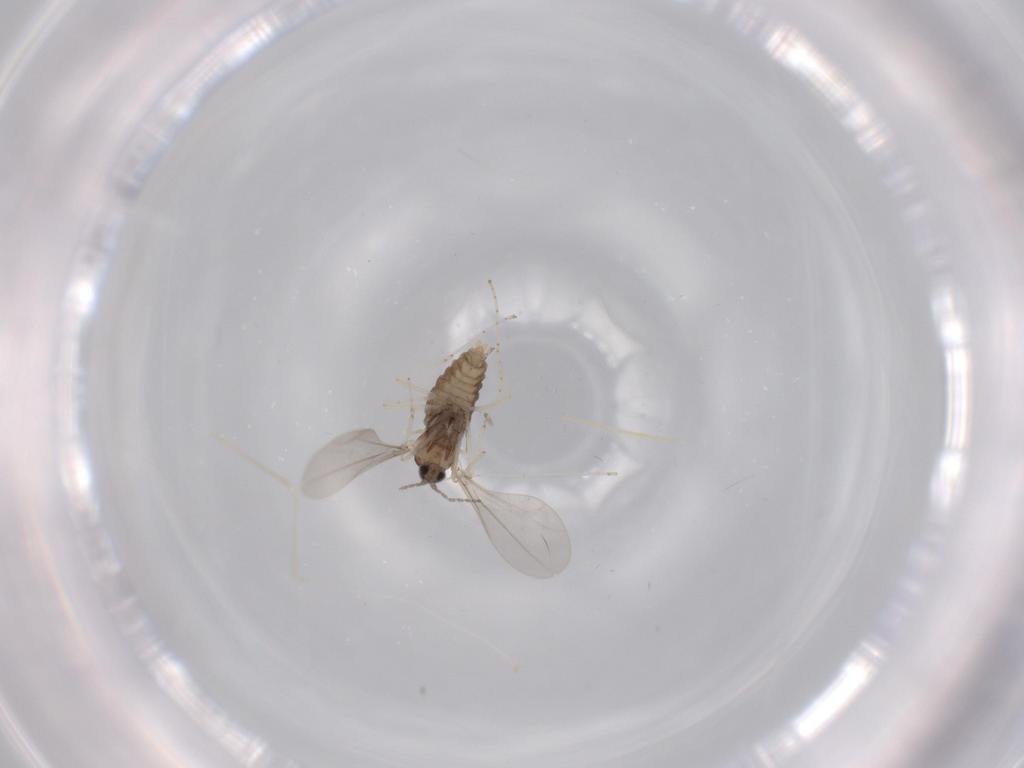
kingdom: Animalia
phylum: Arthropoda
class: Insecta
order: Diptera
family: Cecidomyiidae
